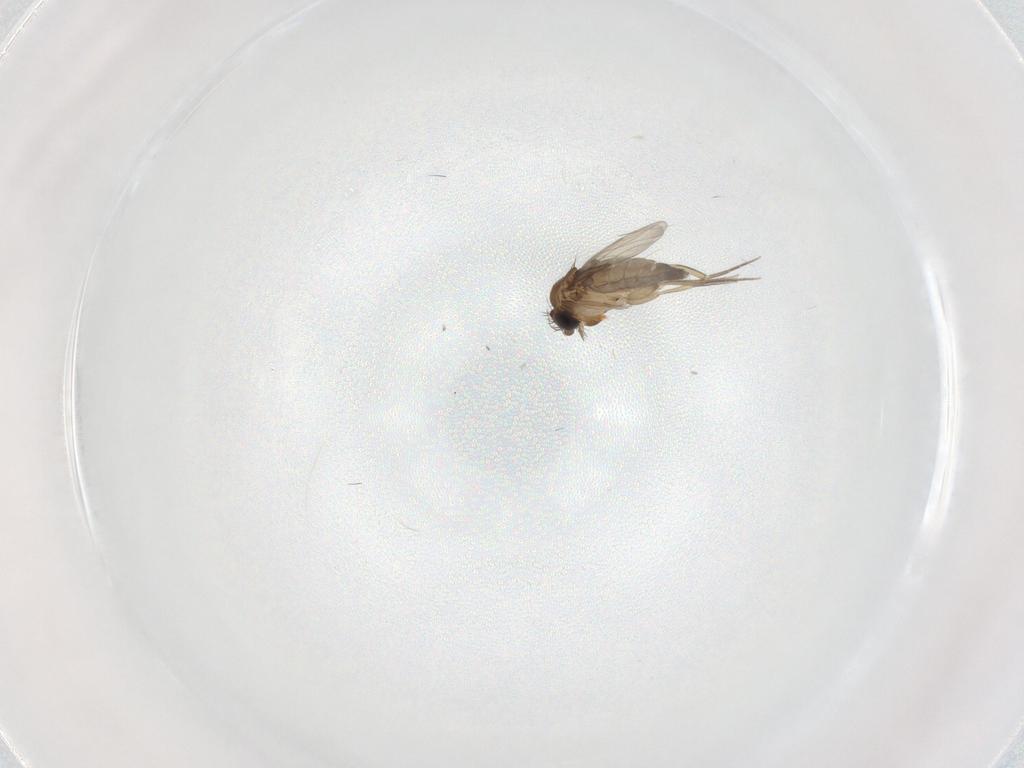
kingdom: Animalia
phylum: Arthropoda
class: Insecta
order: Diptera
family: Phoridae
